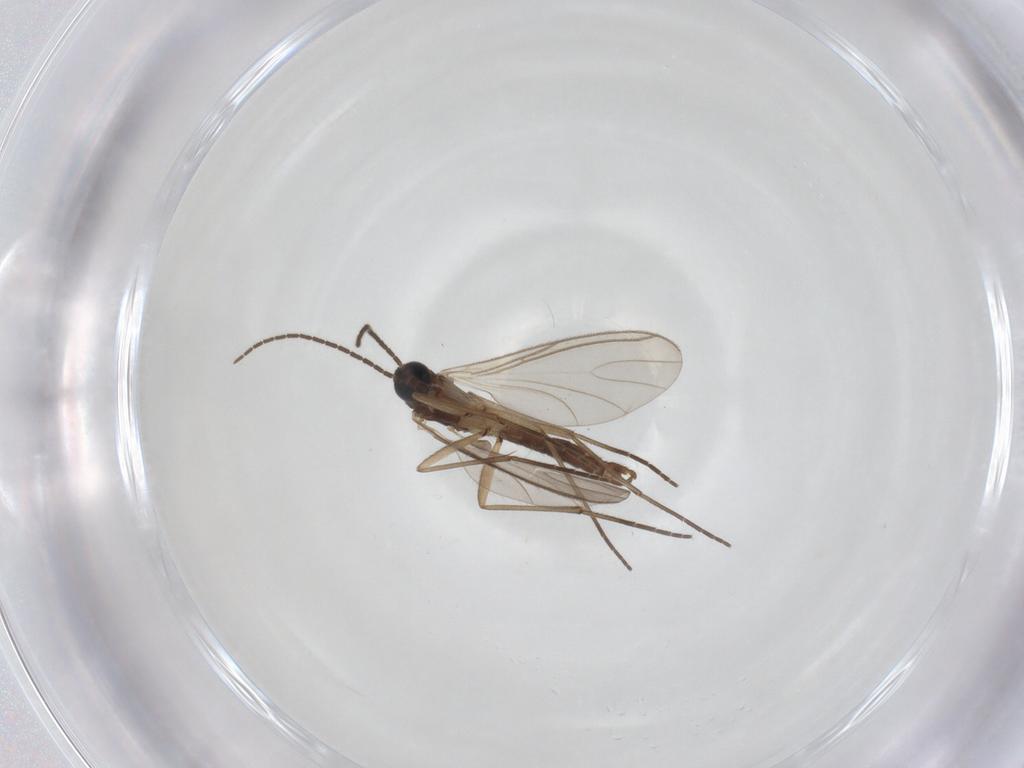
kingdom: Animalia
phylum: Arthropoda
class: Insecta
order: Diptera
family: Sciaridae
